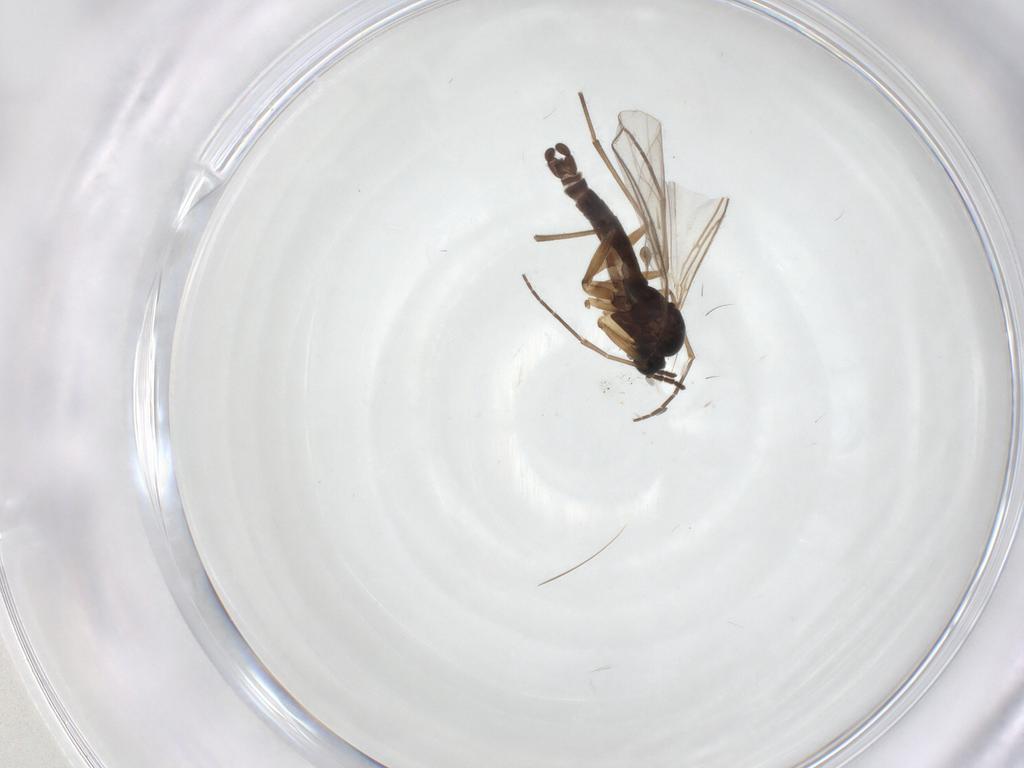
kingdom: Animalia
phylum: Arthropoda
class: Insecta
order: Diptera
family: Sciaridae
